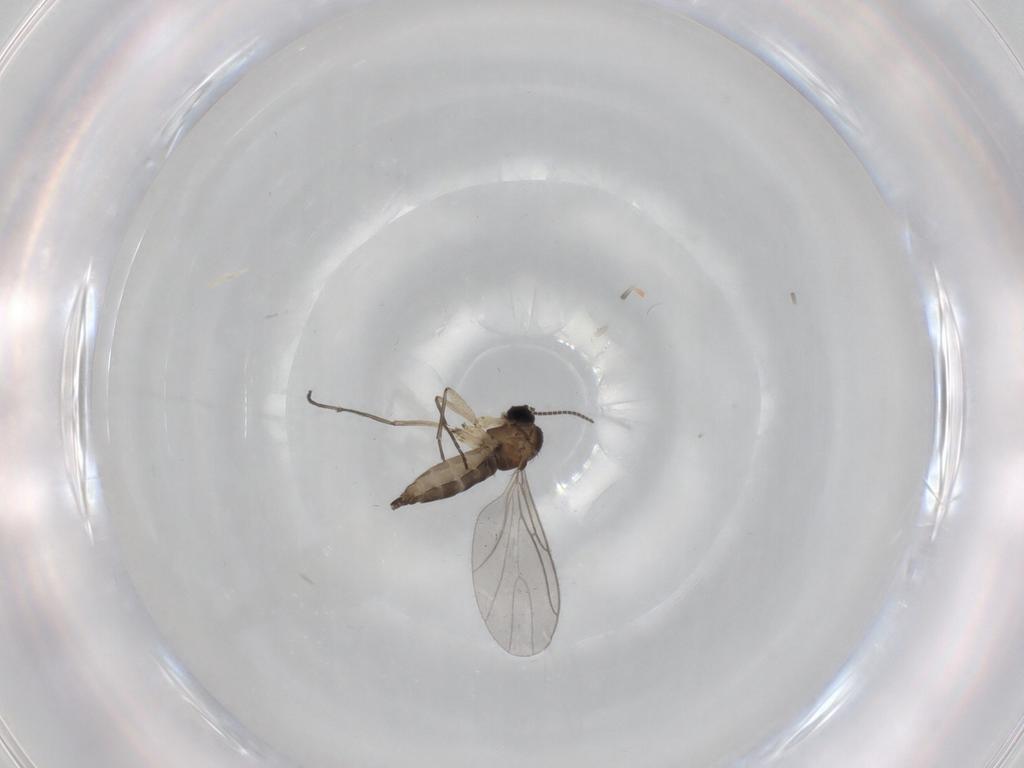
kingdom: Animalia
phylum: Arthropoda
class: Insecta
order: Diptera
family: Sciaridae
